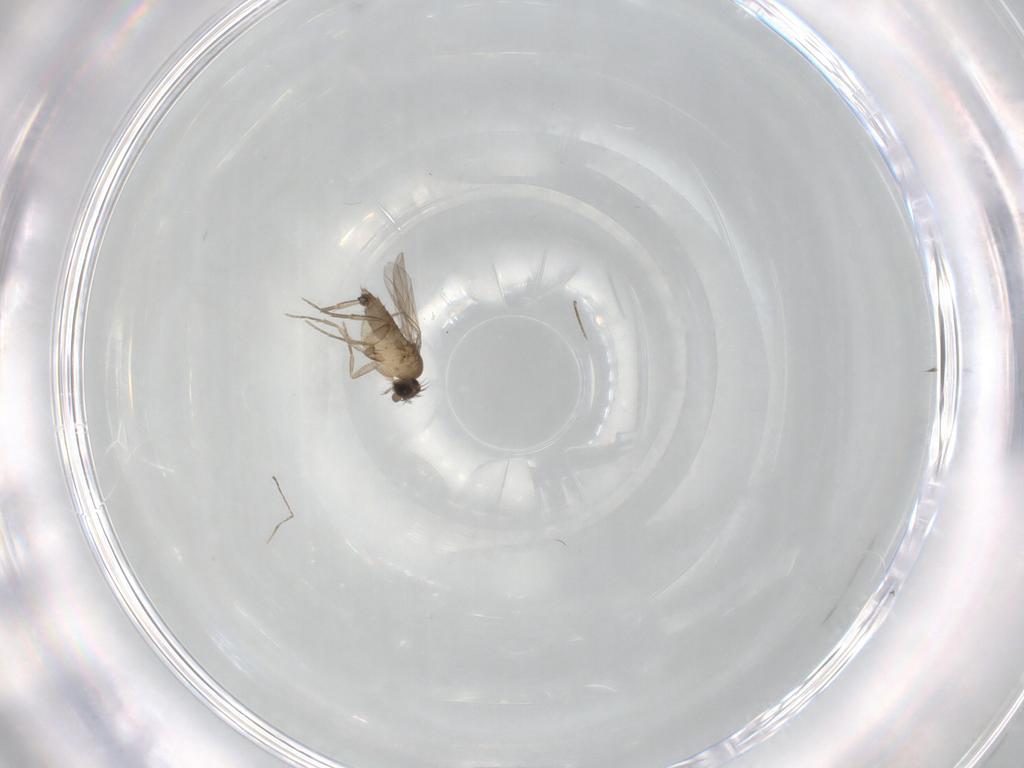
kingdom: Animalia
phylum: Arthropoda
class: Insecta
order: Diptera
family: Phoridae
